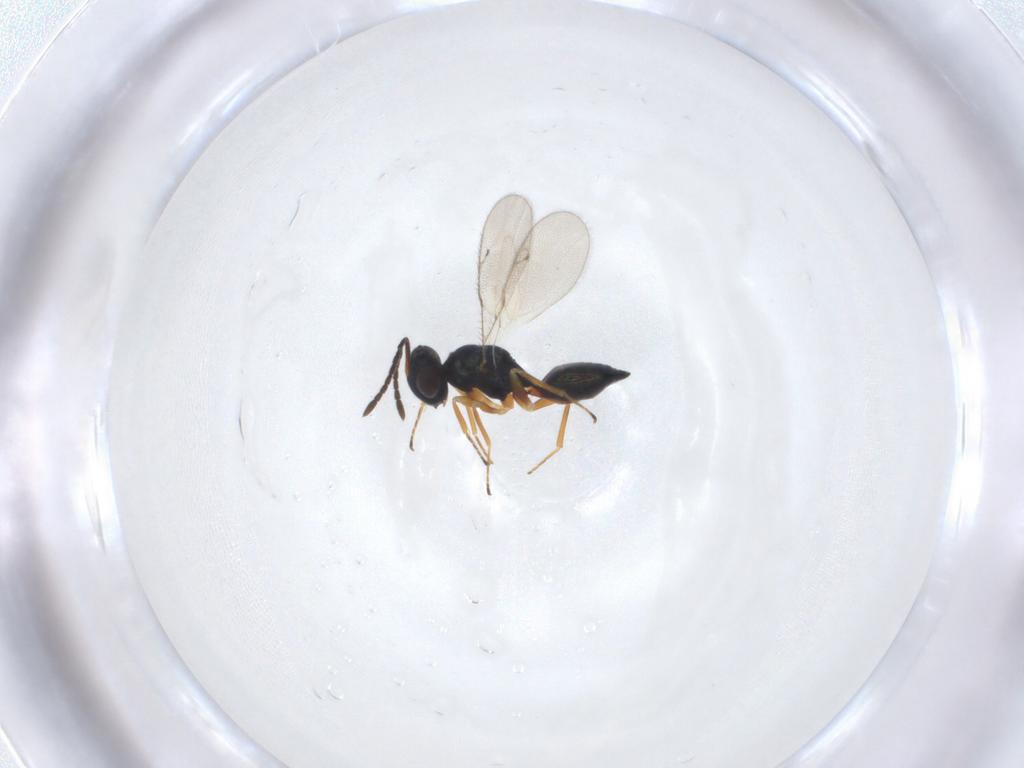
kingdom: Animalia
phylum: Arthropoda
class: Insecta
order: Hymenoptera
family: Pteromalidae
